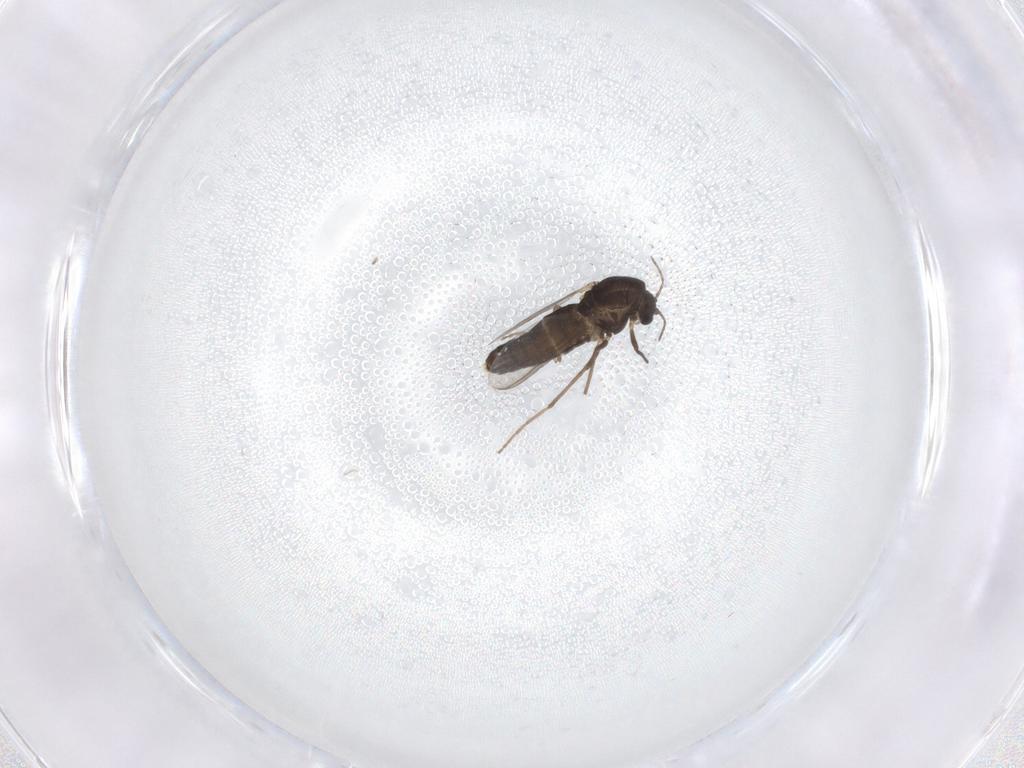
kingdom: Animalia
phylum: Arthropoda
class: Insecta
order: Diptera
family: Chironomidae
